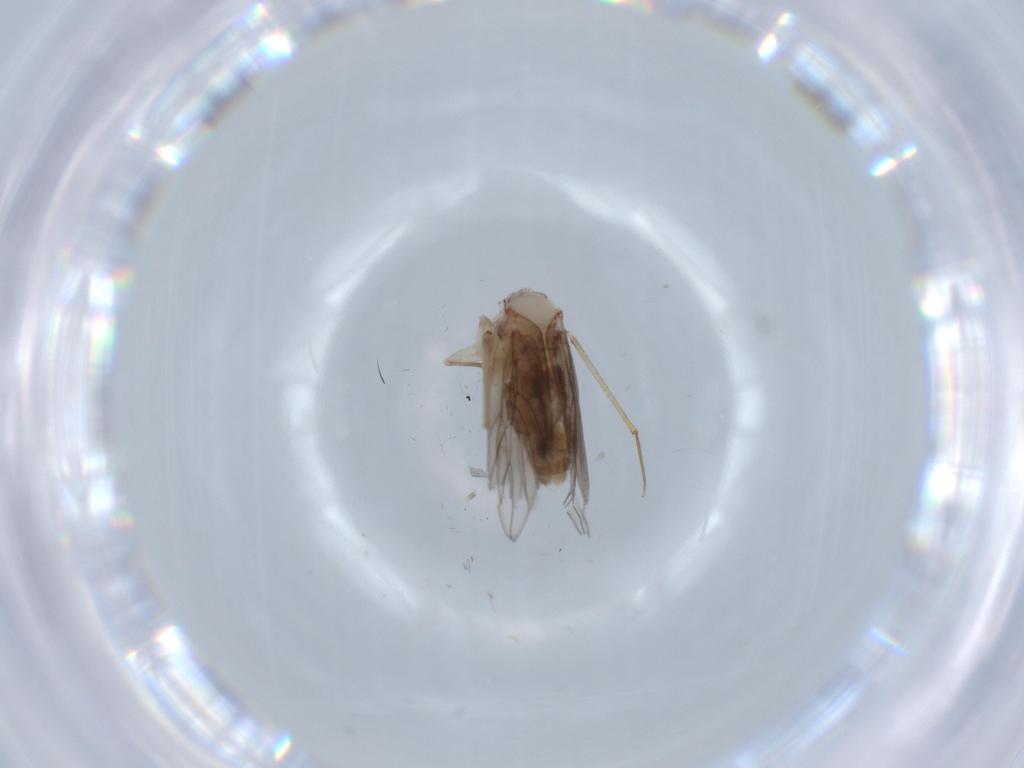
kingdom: Animalia
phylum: Arthropoda
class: Insecta
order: Psocodea
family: Lepidopsocidae
